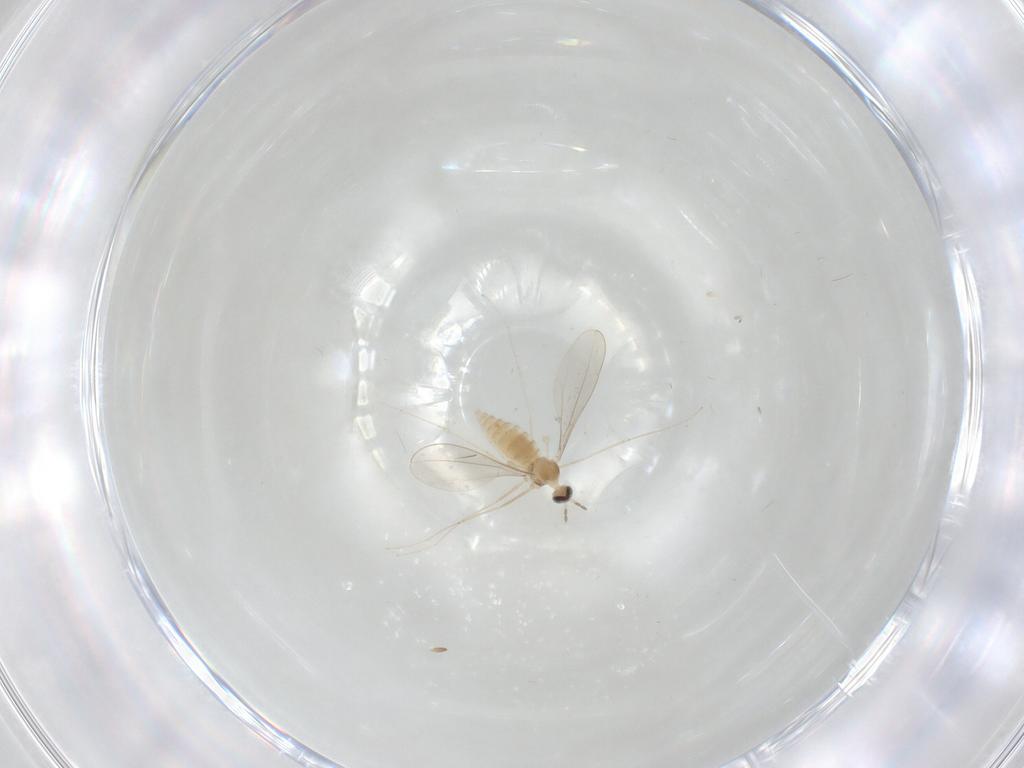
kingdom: Animalia
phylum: Arthropoda
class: Insecta
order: Diptera
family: Cecidomyiidae
